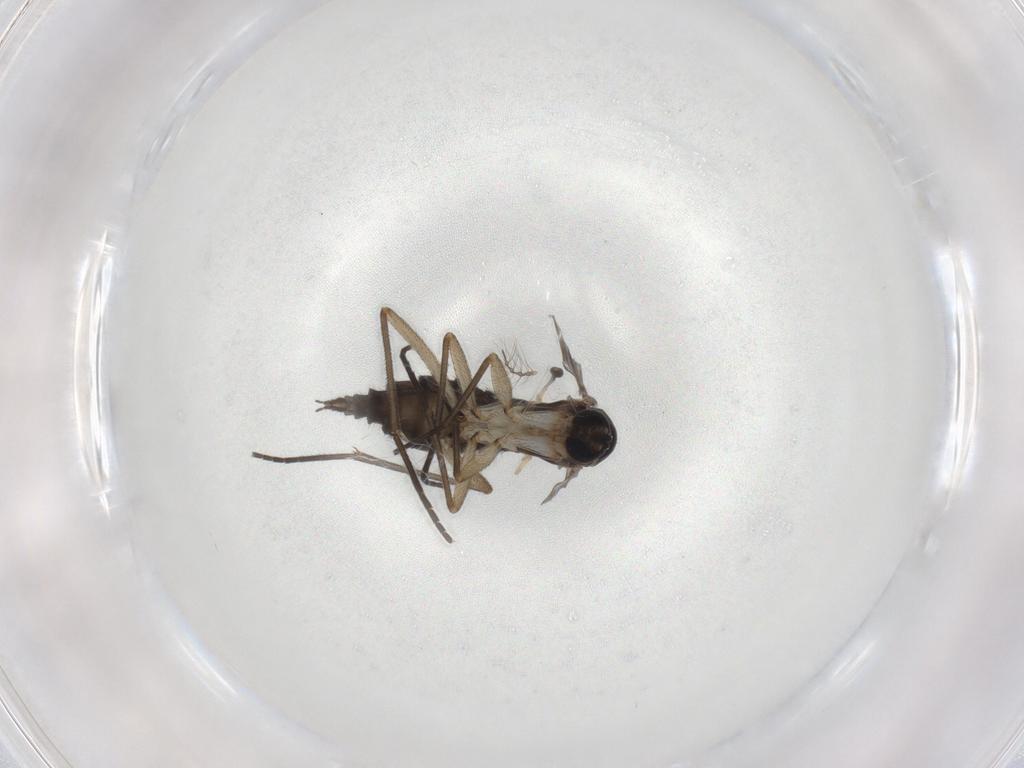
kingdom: Animalia
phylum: Arthropoda
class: Insecta
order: Diptera
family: Sciaridae
